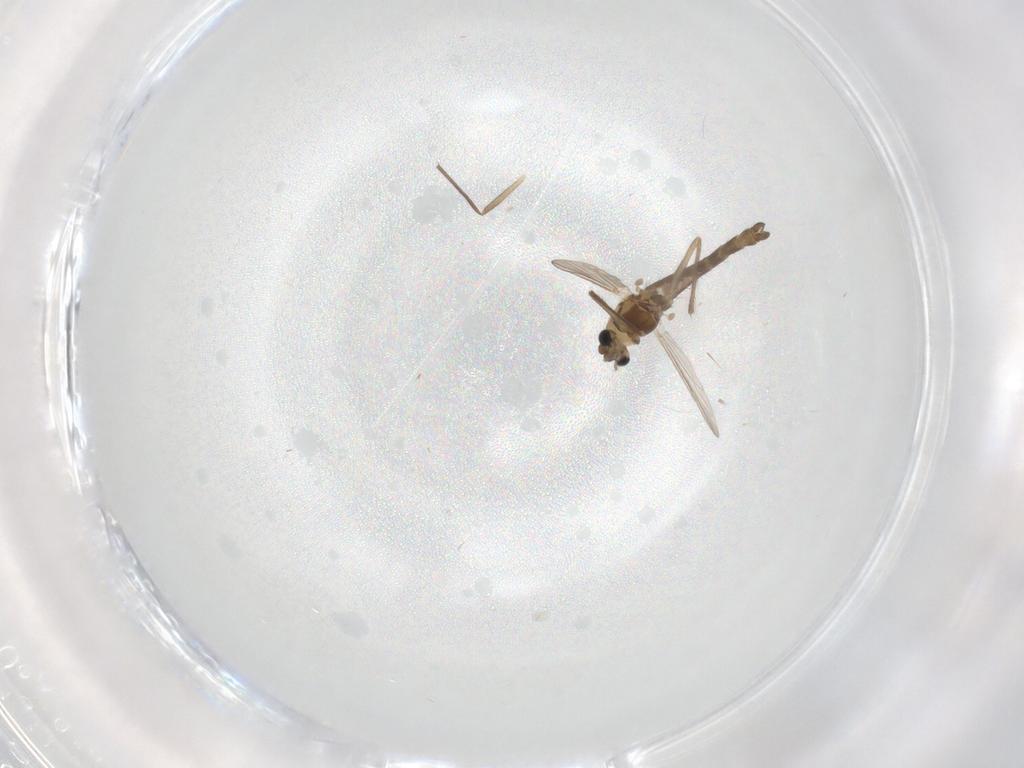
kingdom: Animalia
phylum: Arthropoda
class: Insecta
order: Diptera
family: Chironomidae
